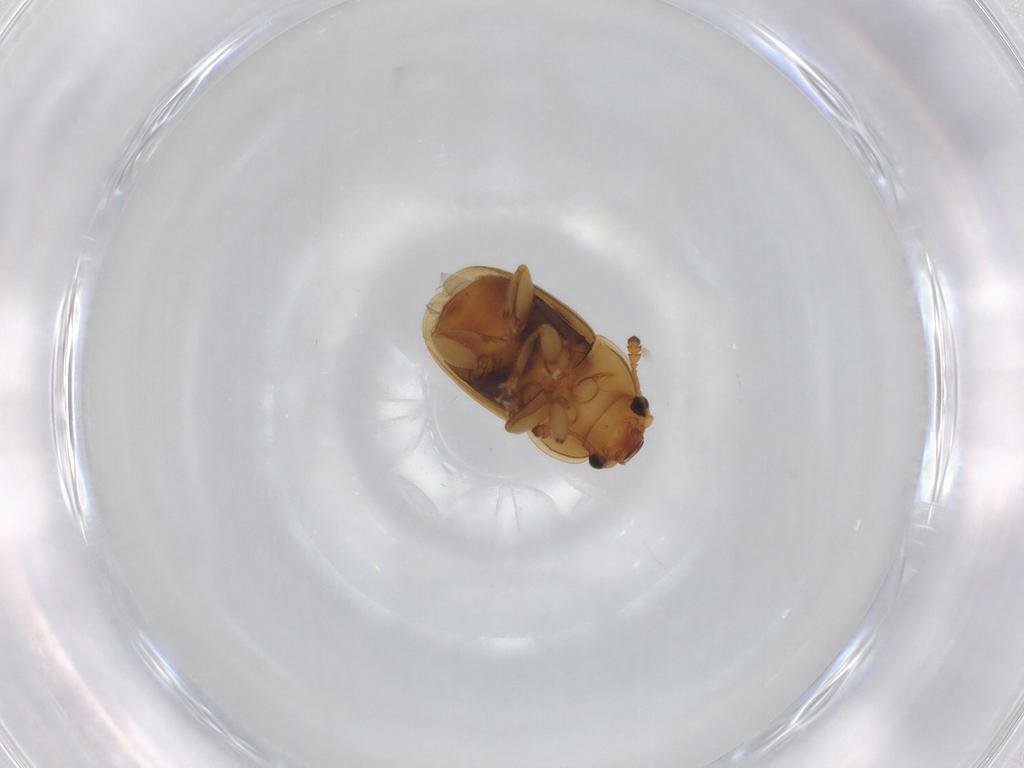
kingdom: Animalia
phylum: Arthropoda
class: Insecta
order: Coleoptera
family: Nitidulidae
